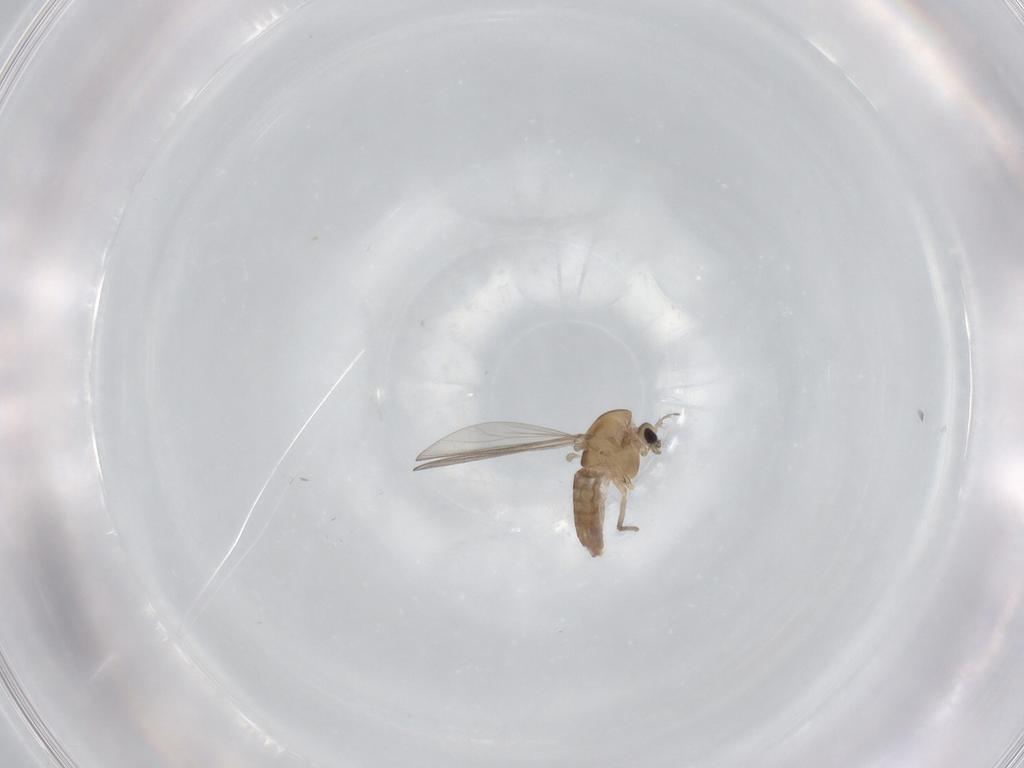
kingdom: Animalia
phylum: Arthropoda
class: Insecta
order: Diptera
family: Chironomidae
